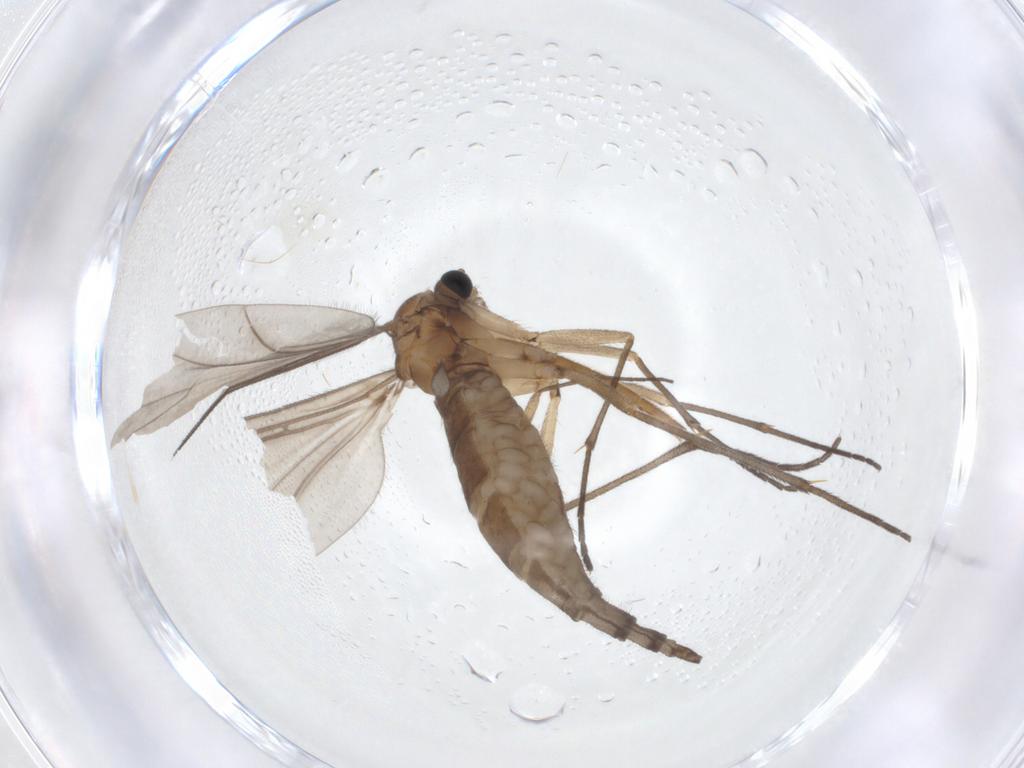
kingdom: Animalia
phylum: Arthropoda
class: Insecta
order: Diptera
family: Sciaridae
